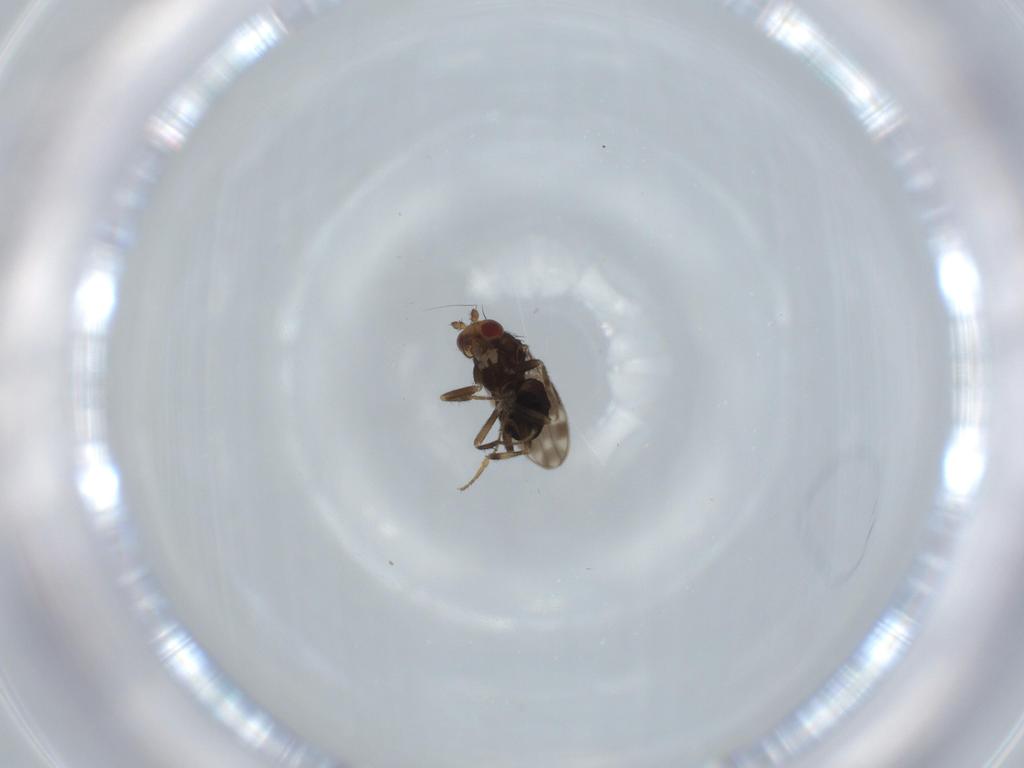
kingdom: Animalia
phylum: Arthropoda
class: Insecta
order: Diptera
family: Sphaeroceridae
